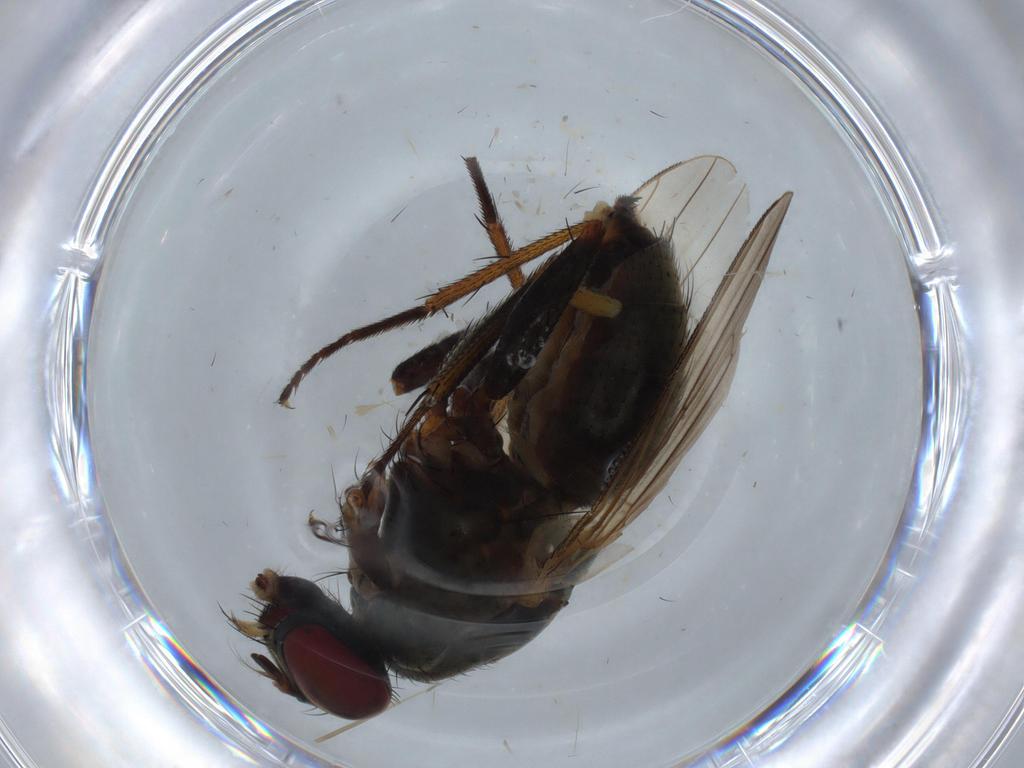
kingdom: Animalia
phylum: Arthropoda
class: Insecta
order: Diptera
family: Muscidae
